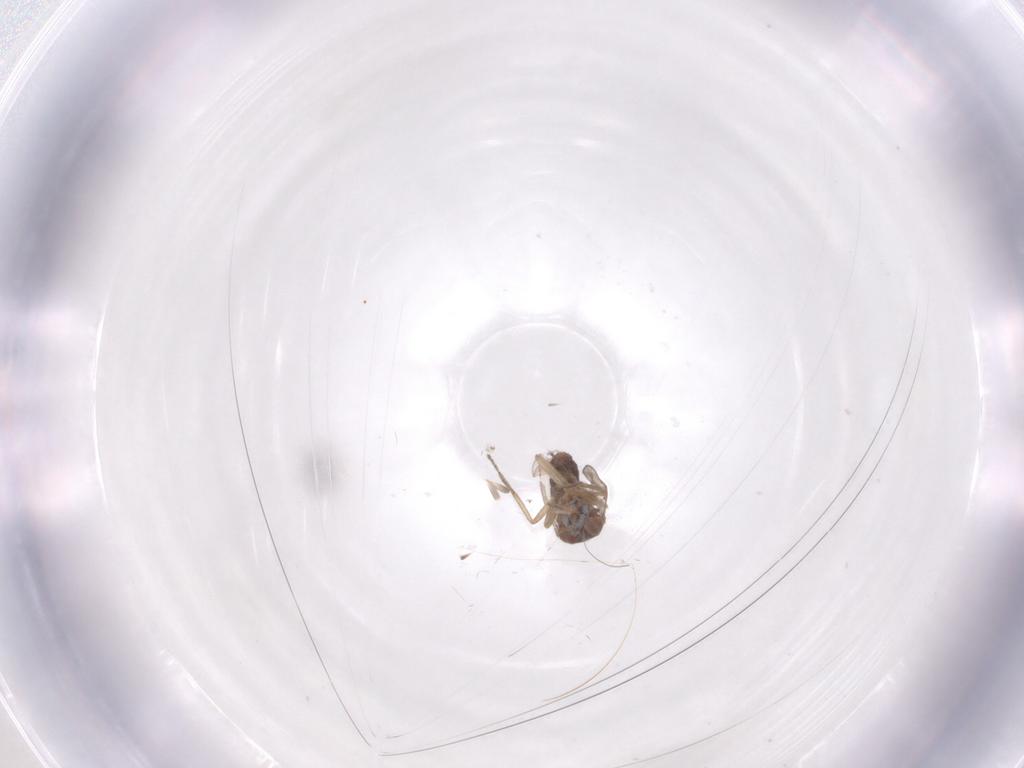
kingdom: Animalia
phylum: Arthropoda
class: Insecta
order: Diptera
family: Ceratopogonidae
